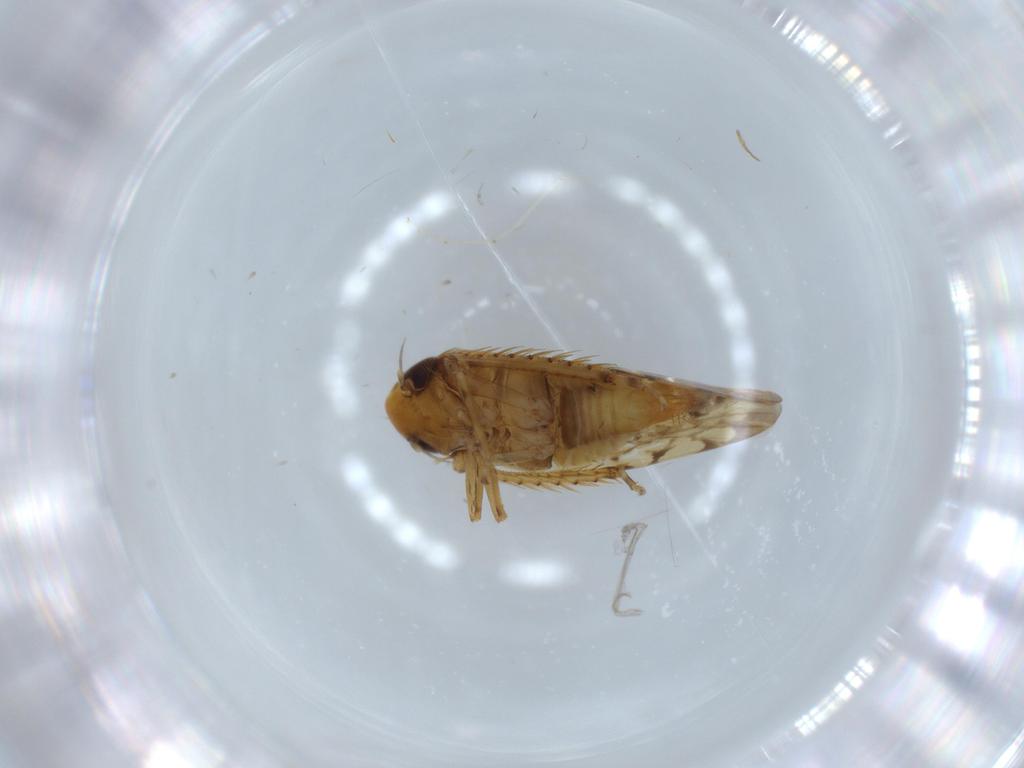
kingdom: Animalia
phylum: Arthropoda
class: Insecta
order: Hemiptera
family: Cicadellidae
